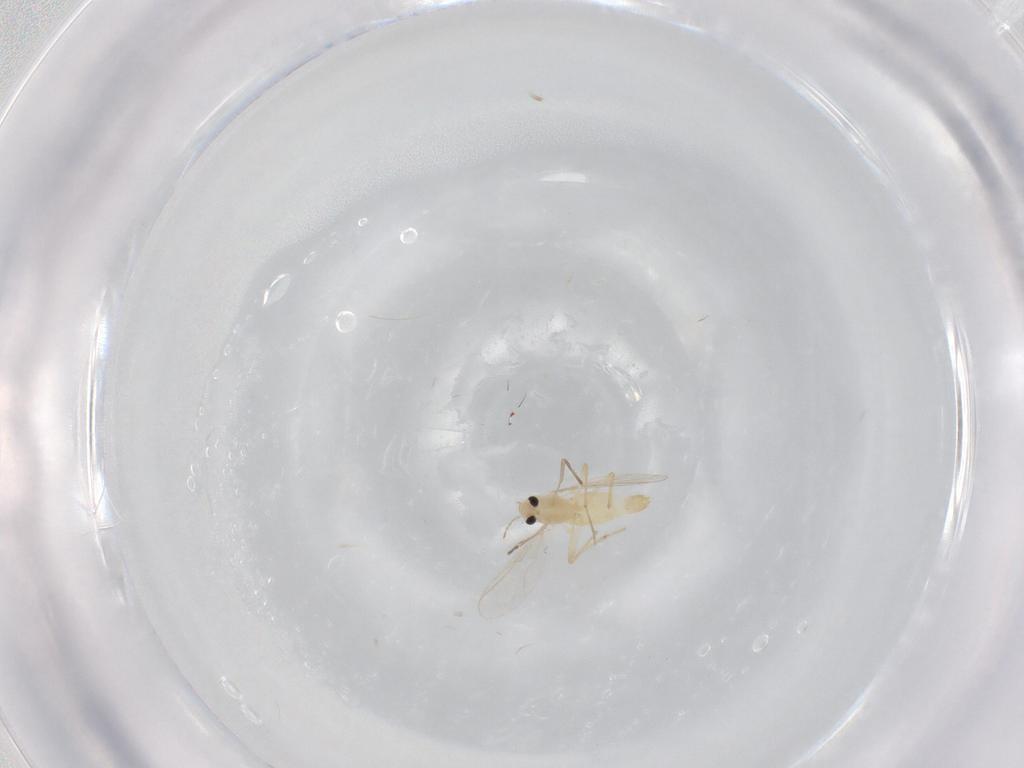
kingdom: Animalia
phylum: Arthropoda
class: Insecta
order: Diptera
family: Chironomidae
